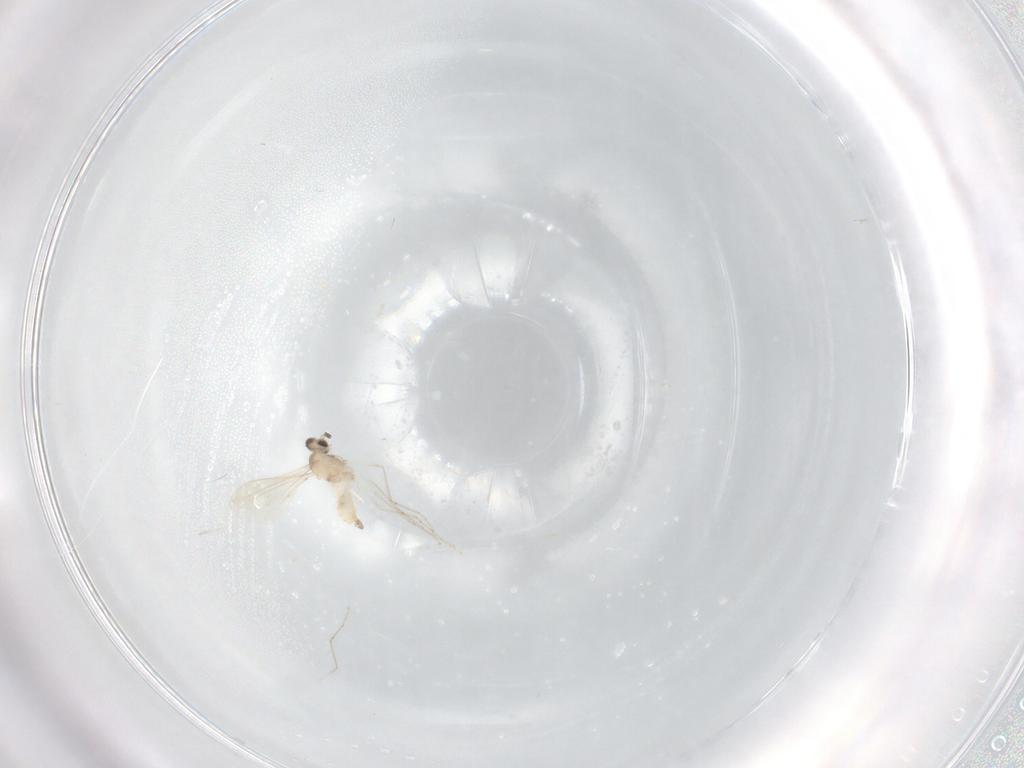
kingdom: Animalia
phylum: Arthropoda
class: Insecta
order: Diptera
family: Cecidomyiidae
